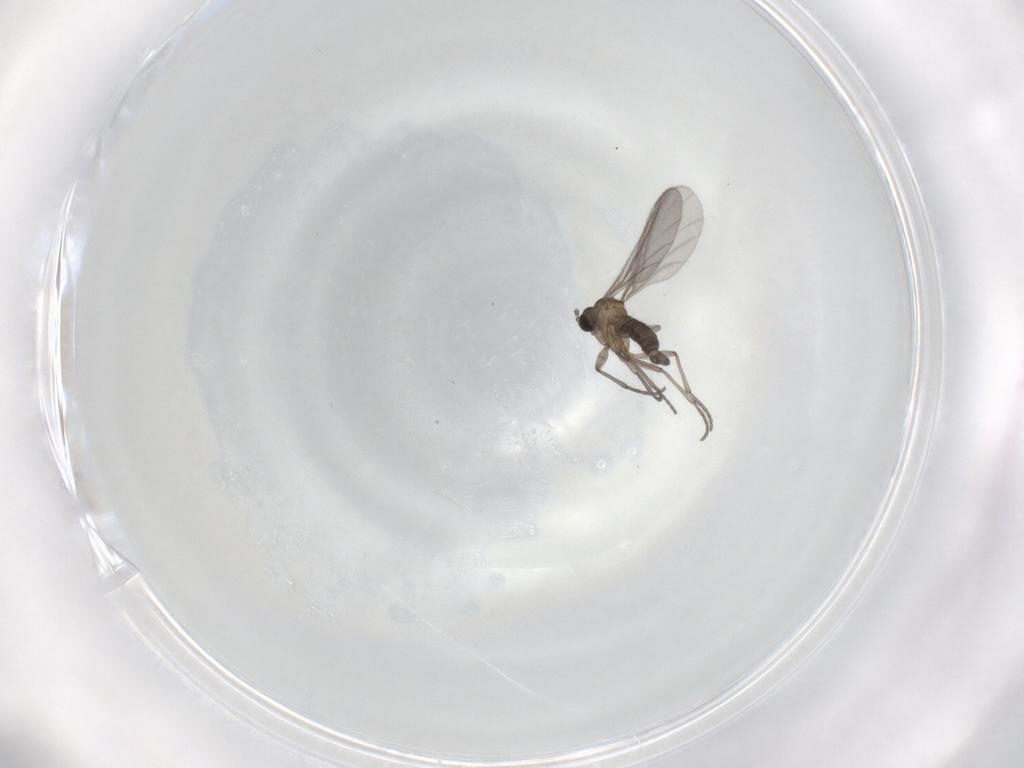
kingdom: Animalia
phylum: Arthropoda
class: Insecta
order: Diptera
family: Sciaridae
